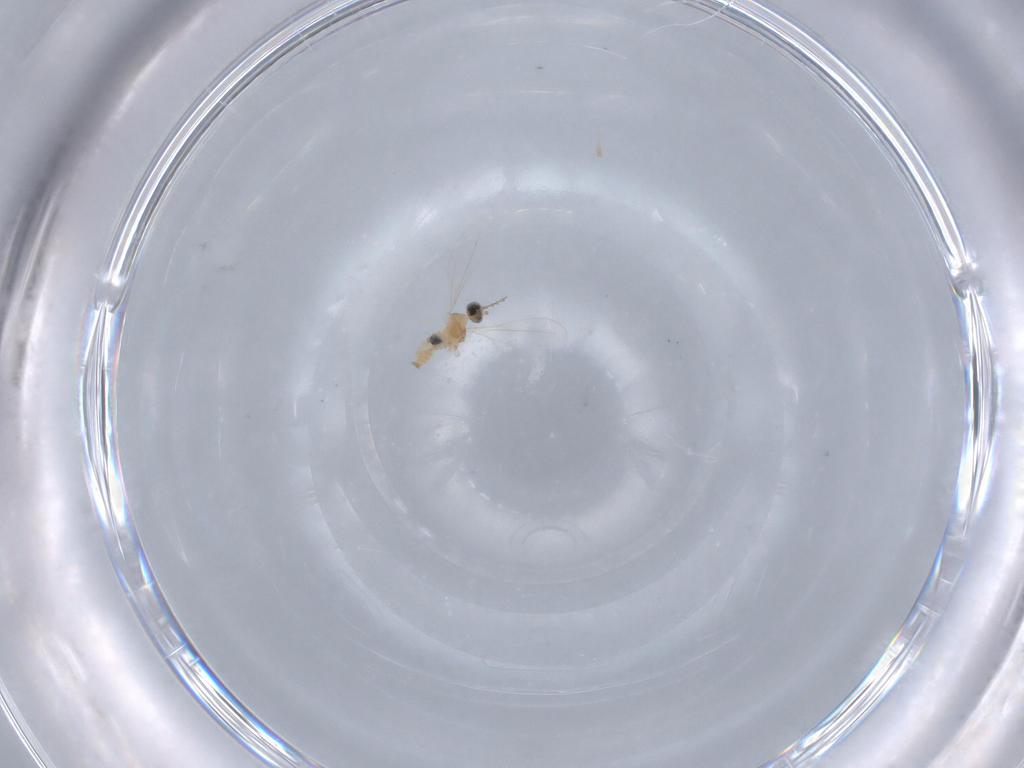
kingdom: Animalia
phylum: Arthropoda
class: Insecta
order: Diptera
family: Cecidomyiidae
